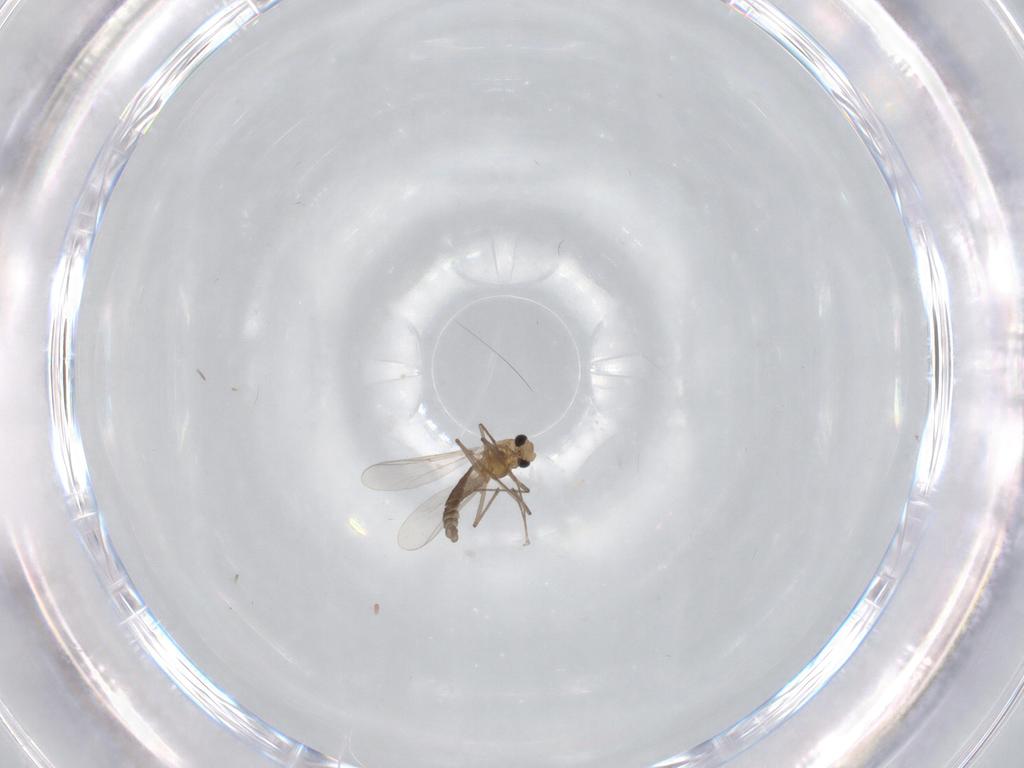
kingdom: Animalia
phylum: Arthropoda
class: Insecta
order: Diptera
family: Chironomidae
